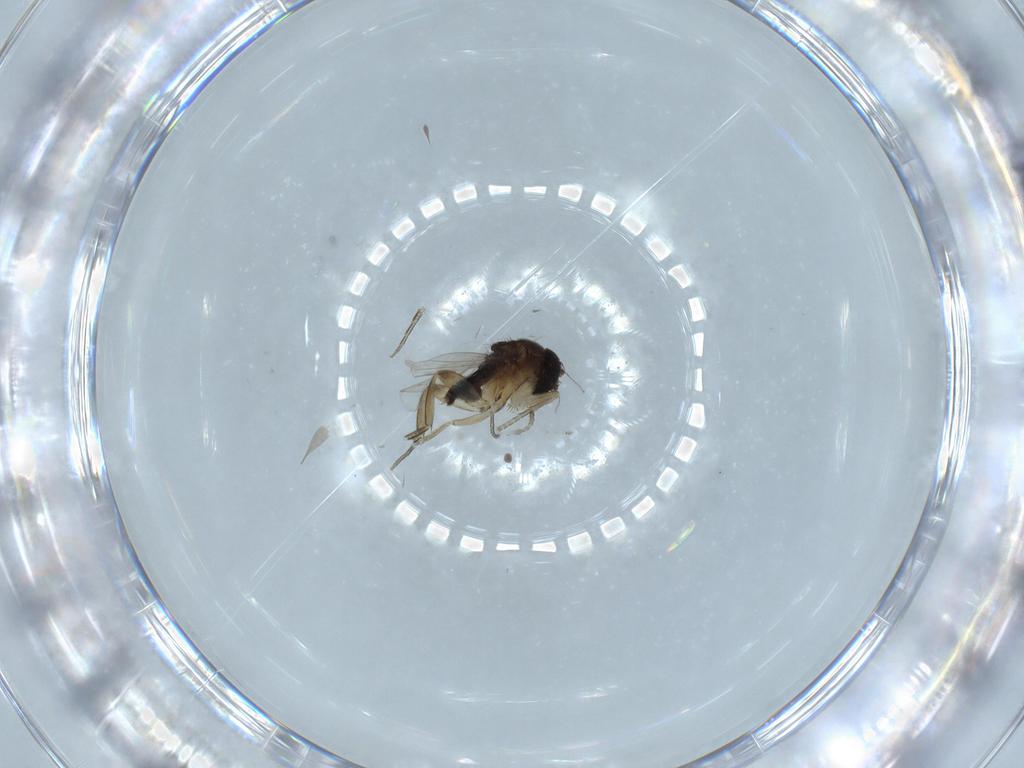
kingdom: Animalia
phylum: Arthropoda
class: Insecta
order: Diptera
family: Phoridae
